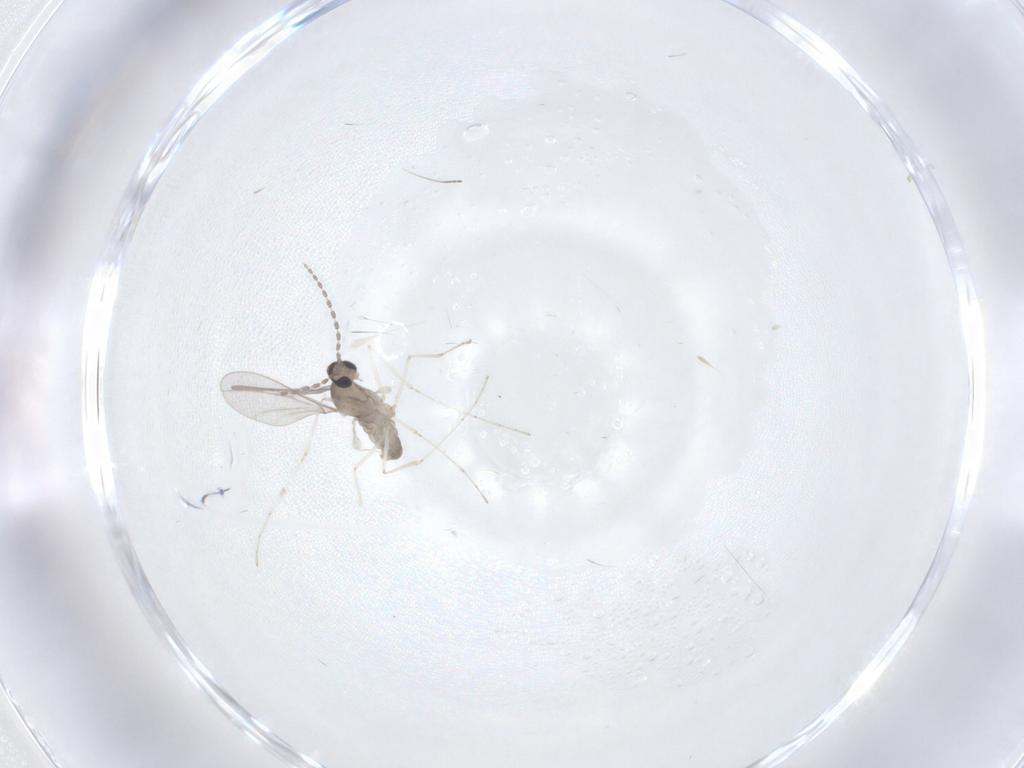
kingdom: Animalia
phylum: Arthropoda
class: Insecta
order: Diptera
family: Phoridae
